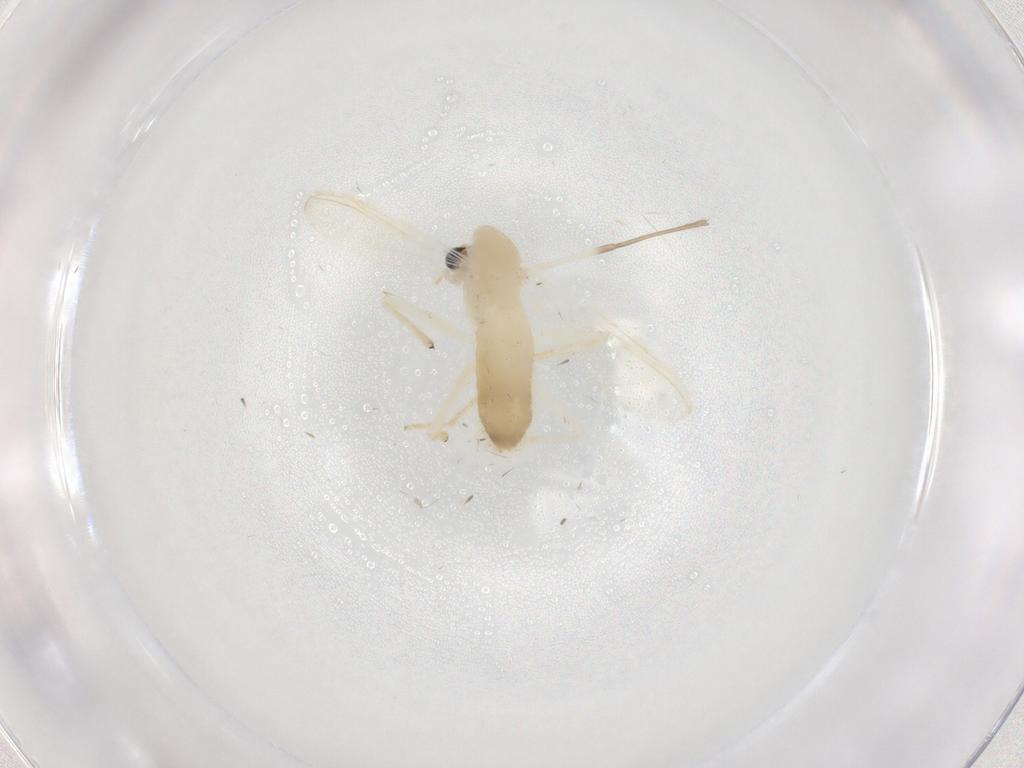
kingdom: Animalia
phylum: Arthropoda
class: Insecta
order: Diptera
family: Chironomidae
